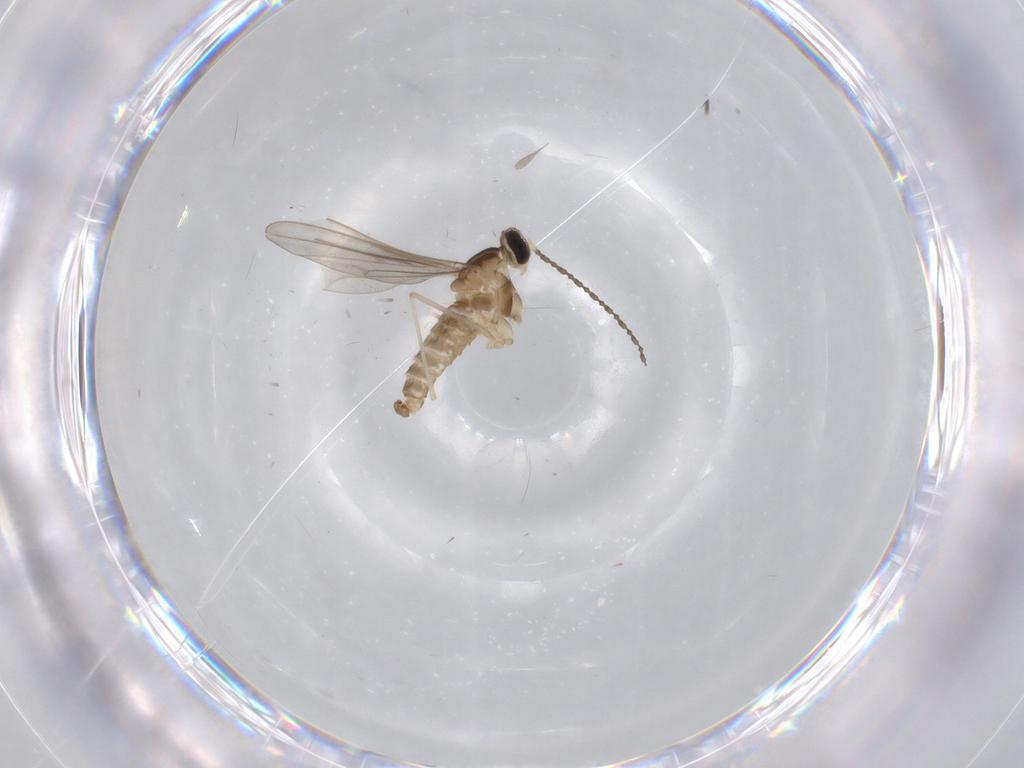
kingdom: Animalia
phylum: Arthropoda
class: Insecta
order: Diptera
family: Cecidomyiidae
